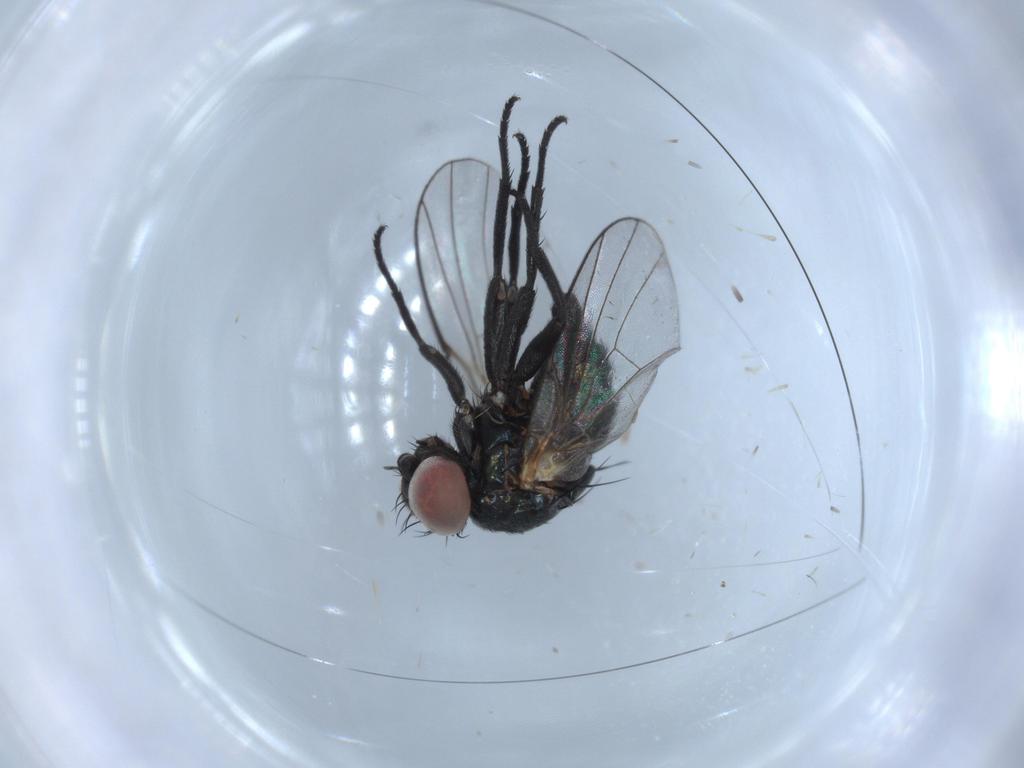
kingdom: Animalia
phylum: Arthropoda
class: Insecta
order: Diptera
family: Agromyzidae
